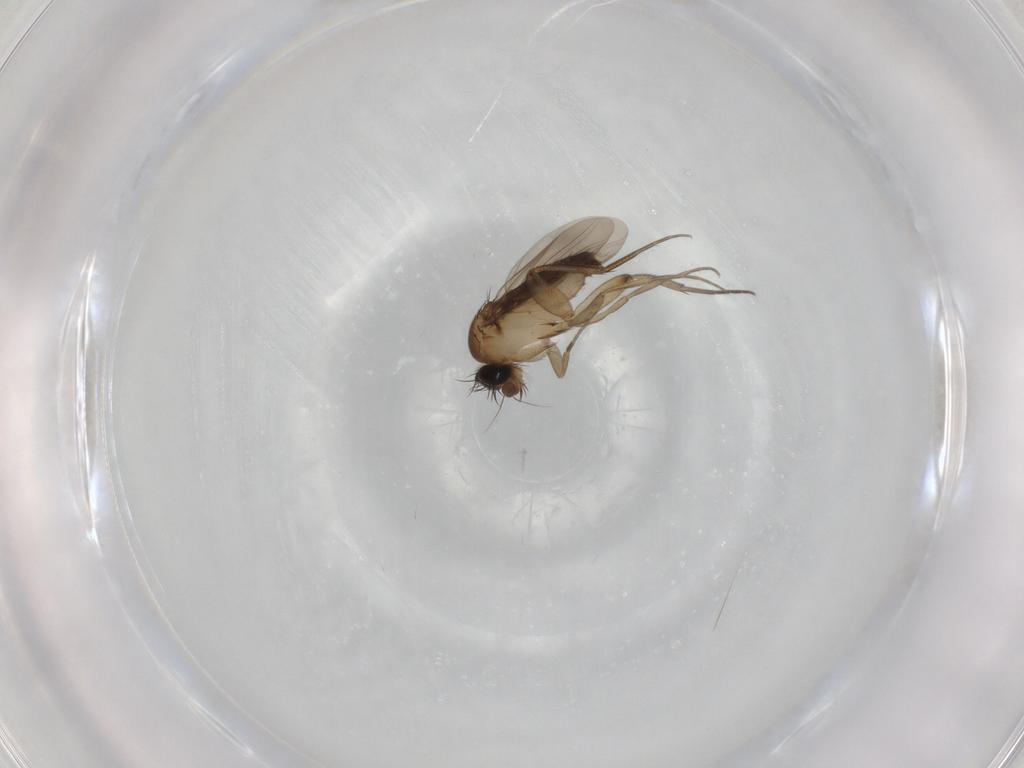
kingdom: Animalia
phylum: Arthropoda
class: Insecta
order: Diptera
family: Phoridae
